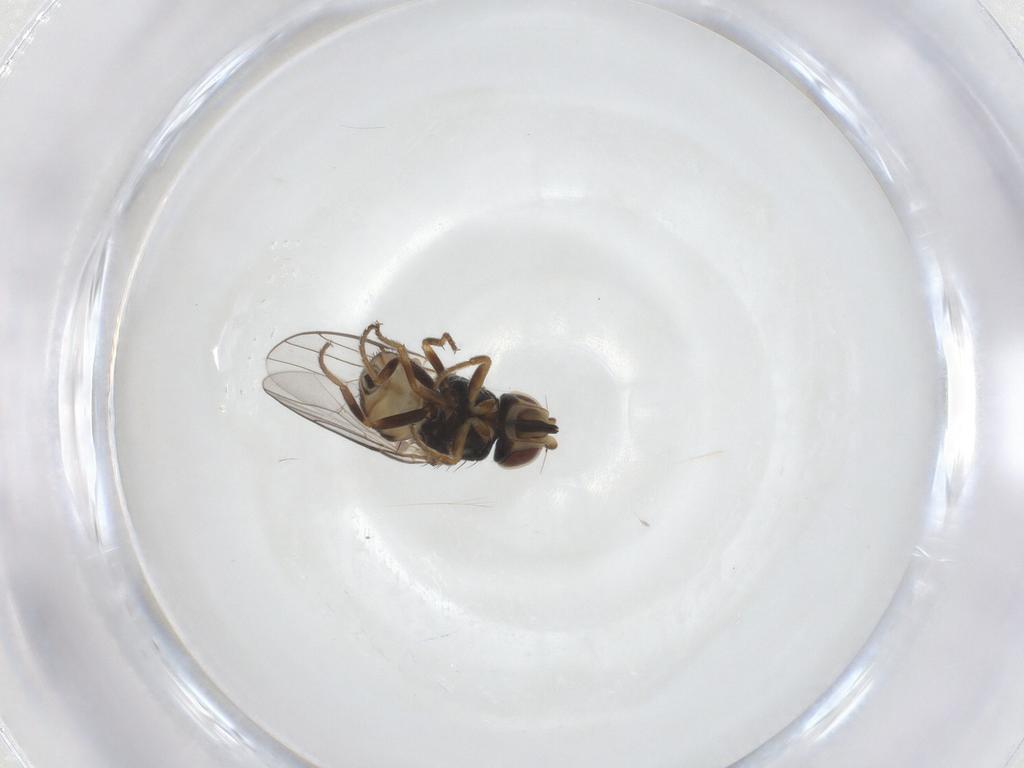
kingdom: Animalia
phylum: Arthropoda
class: Insecta
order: Diptera
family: Chloropidae
